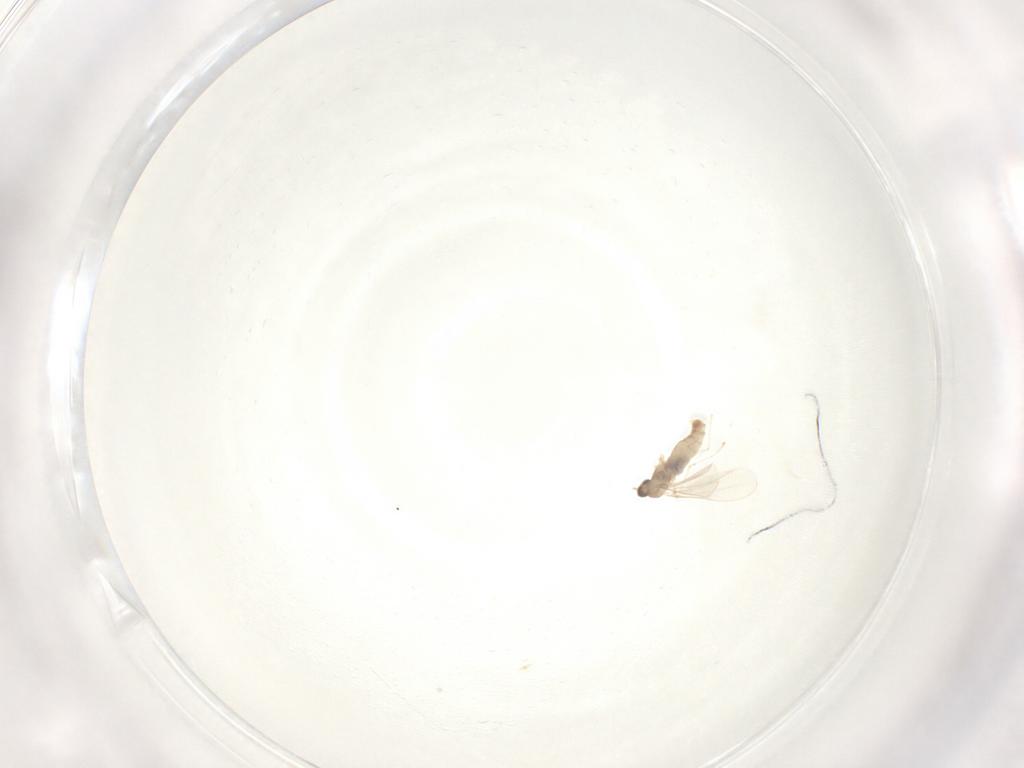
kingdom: Animalia
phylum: Arthropoda
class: Insecta
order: Diptera
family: Cecidomyiidae
